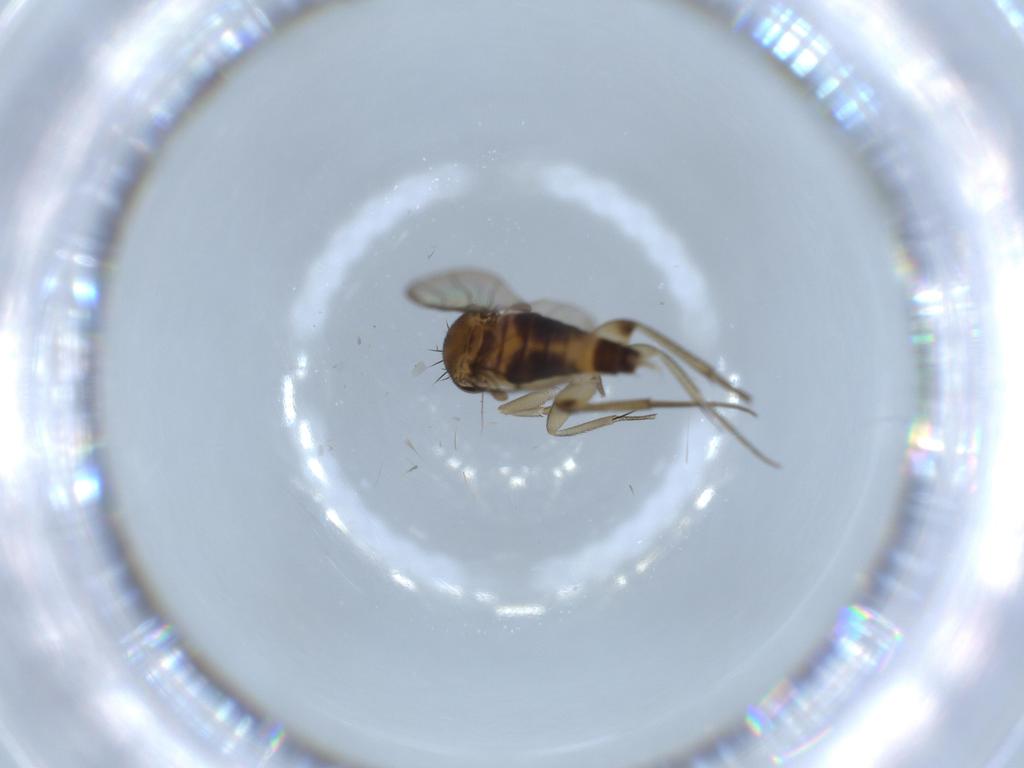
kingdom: Animalia
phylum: Arthropoda
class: Insecta
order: Diptera
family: Phoridae
